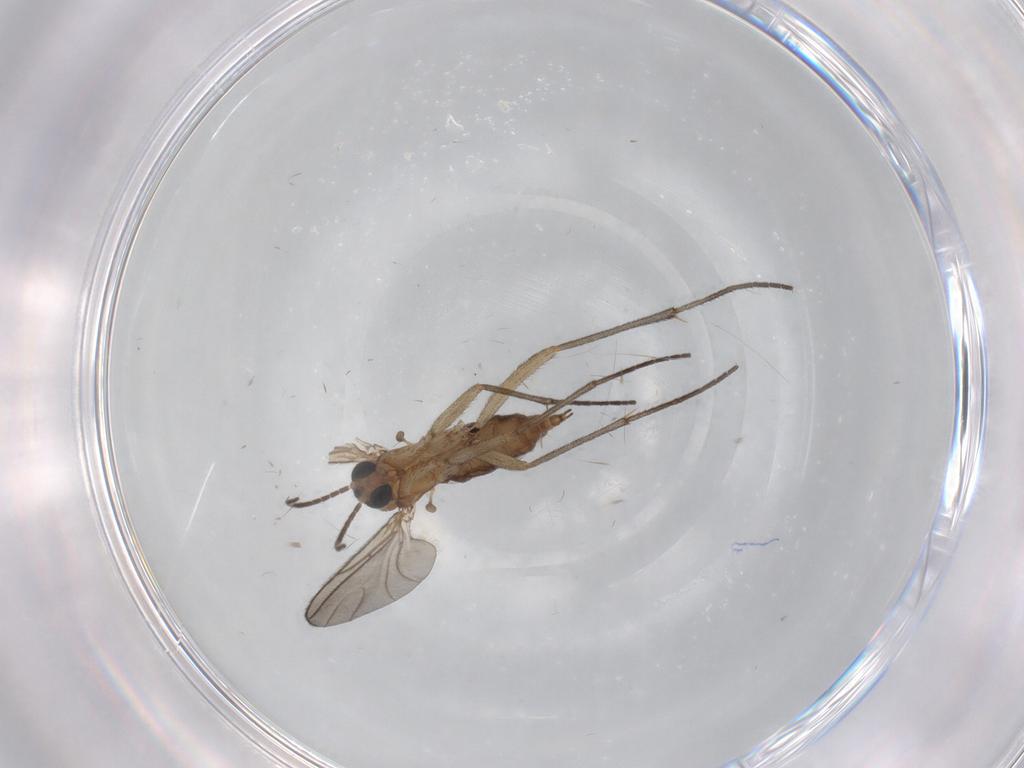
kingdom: Animalia
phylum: Arthropoda
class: Insecta
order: Diptera
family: Sciaridae
